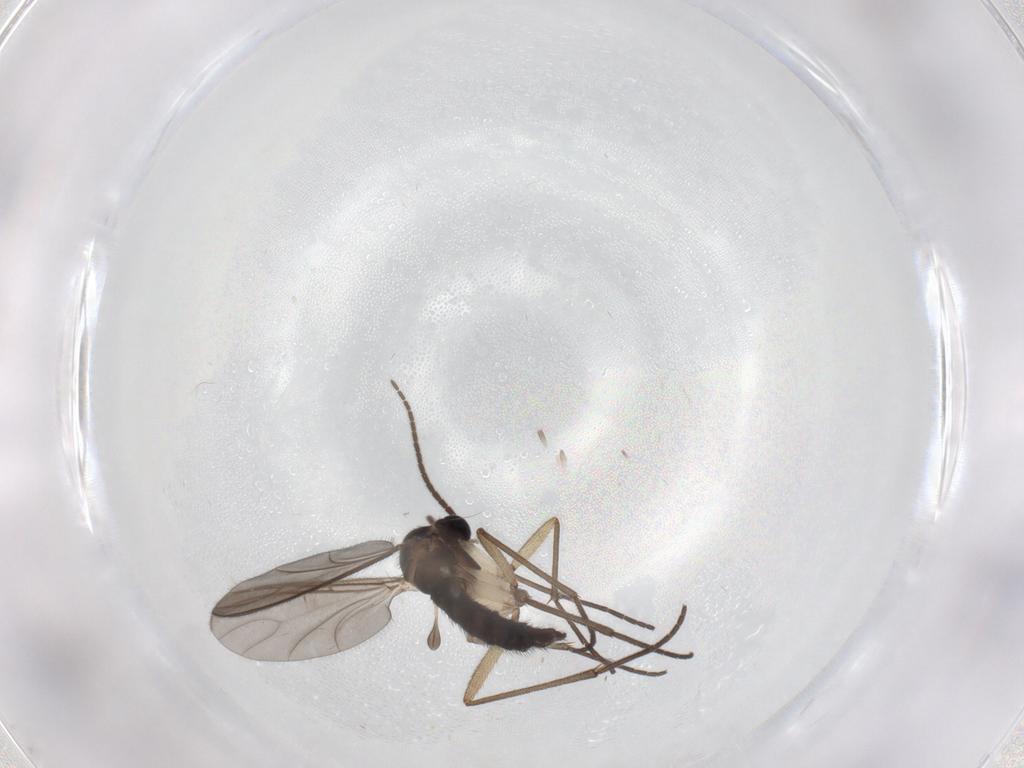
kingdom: Animalia
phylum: Arthropoda
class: Insecta
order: Diptera
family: Sciaridae
